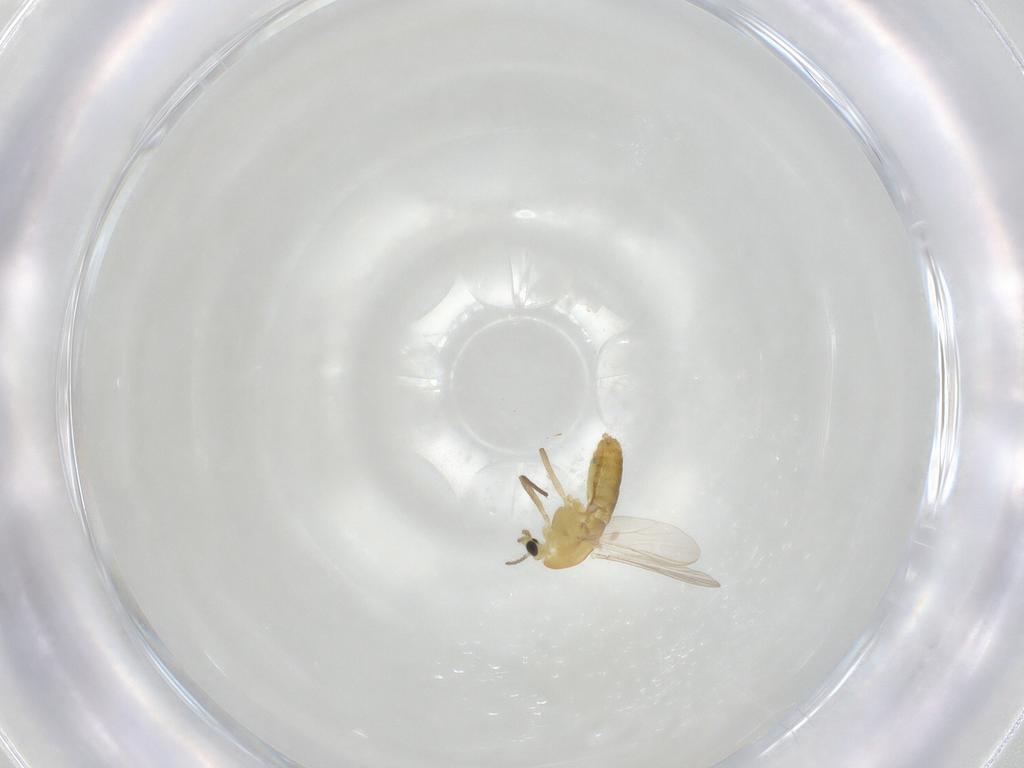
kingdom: Animalia
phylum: Arthropoda
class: Insecta
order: Diptera
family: Chironomidae
